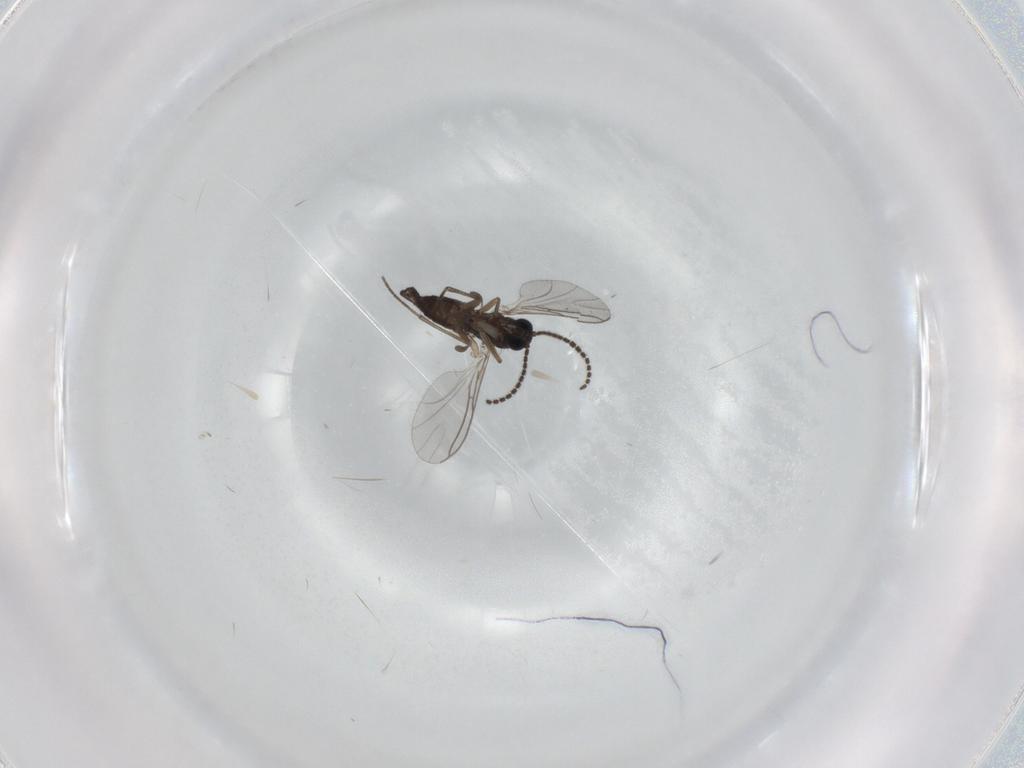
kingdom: Animalia
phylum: Arthropoda
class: Insecta
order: Diptera
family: Sciaridae
